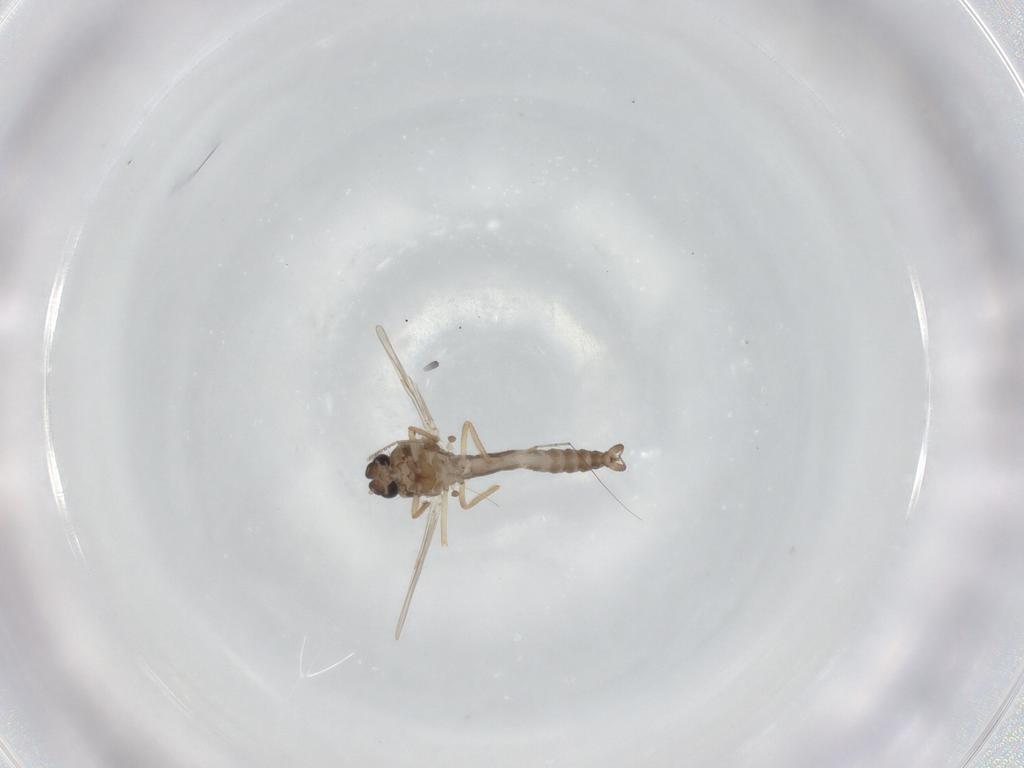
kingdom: Animalia
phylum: Arthropoda
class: Insecta
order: Diptera
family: Ceratopogonidae
